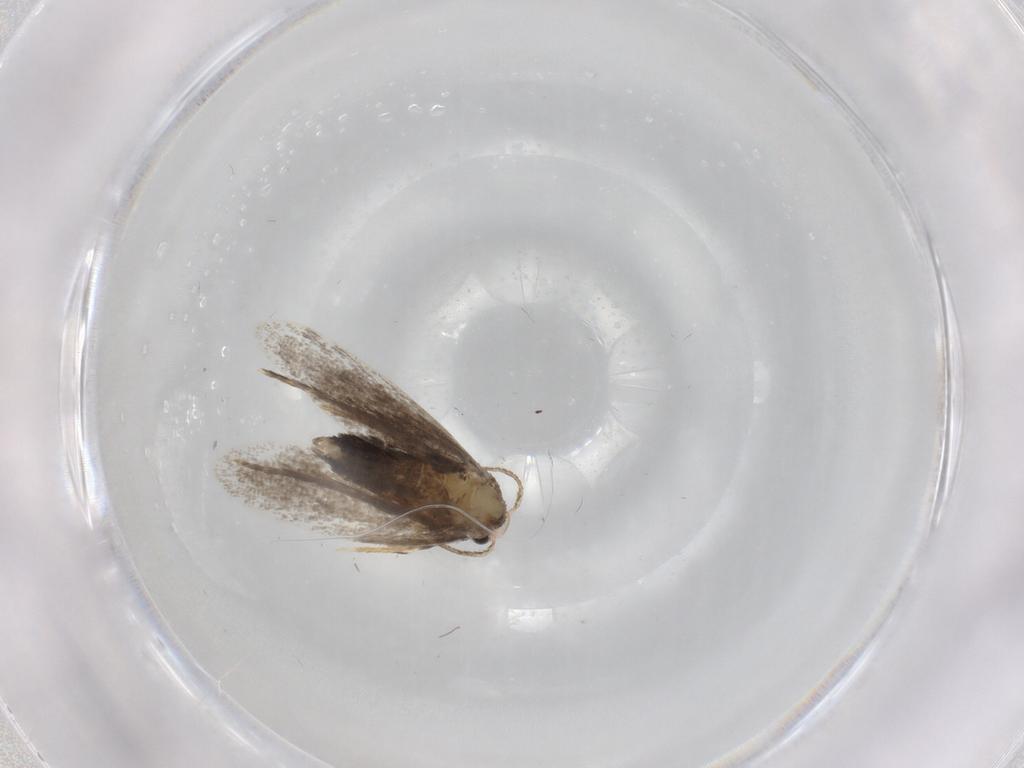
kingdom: Animalia
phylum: Arthropoda
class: Insecta
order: Lepidoptera
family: Psychidae
